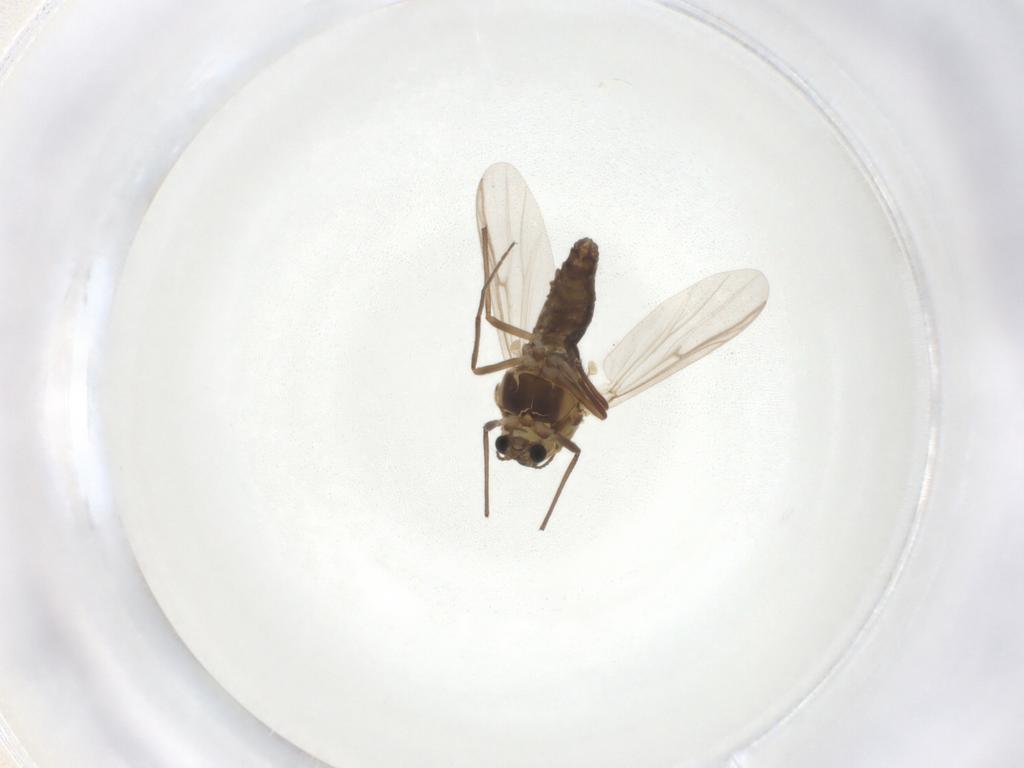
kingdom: Animalia
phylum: Arthropoda
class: Insecta
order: Diptera
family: Chironomidae
